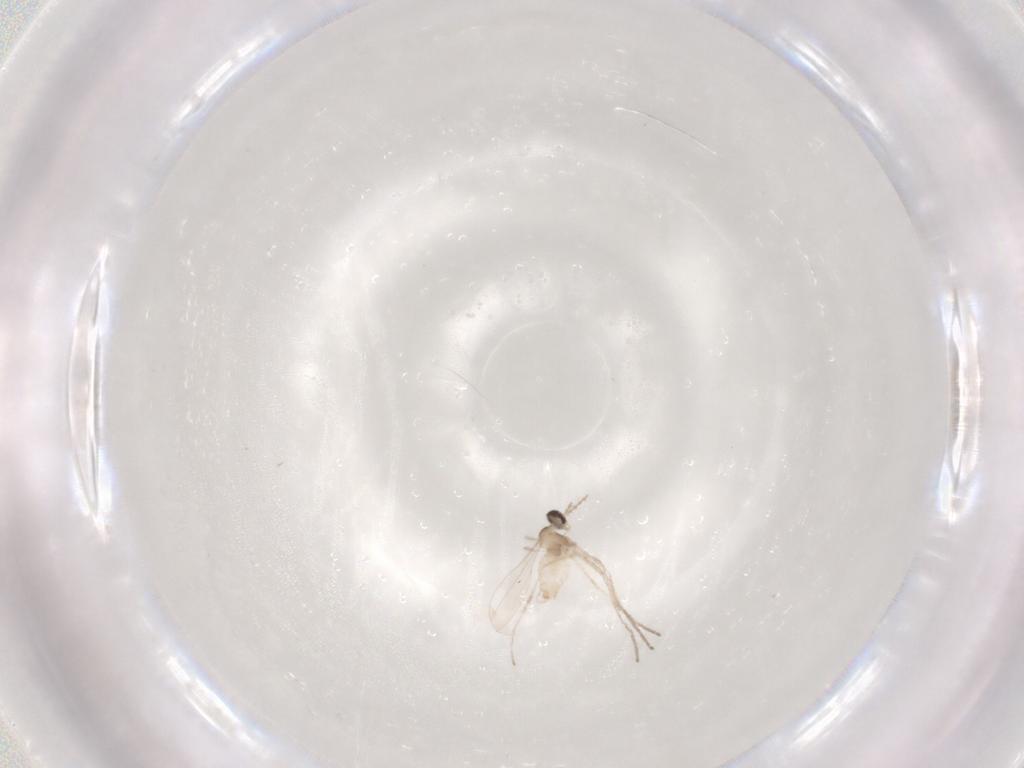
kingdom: Animalia
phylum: Arthropoda
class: Insecta
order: Diptera
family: Cecidomyiidae
